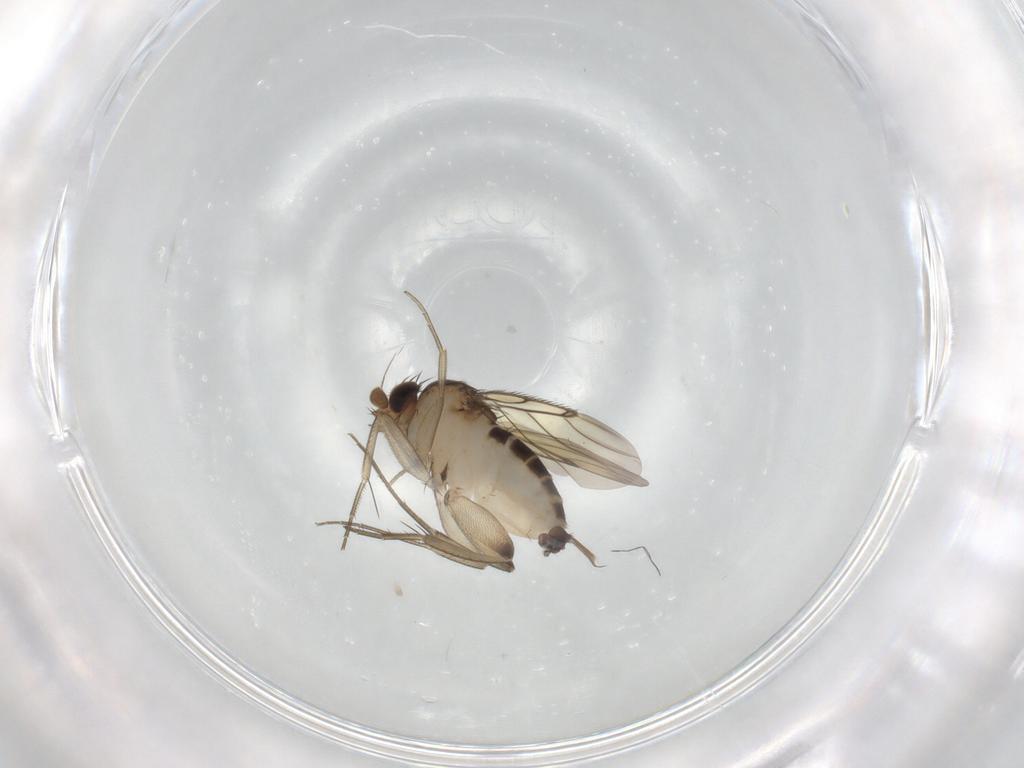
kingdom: Animalia
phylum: Arthropoda
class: Insecta
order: Diptera
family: Phoridae
